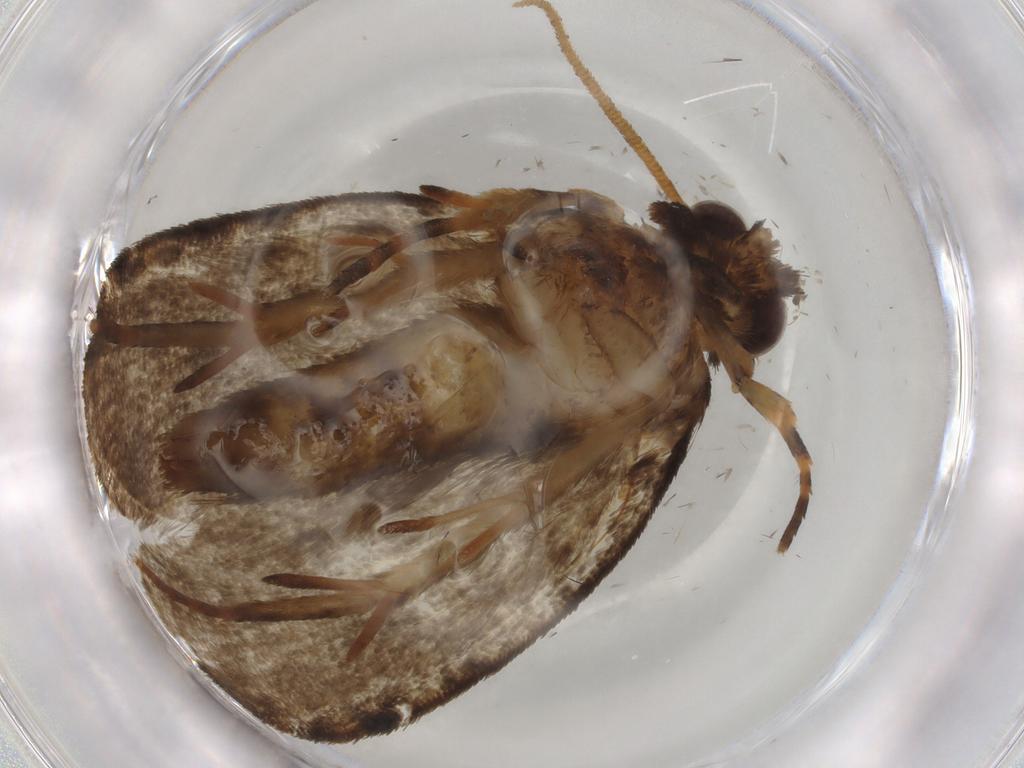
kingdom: Animalia
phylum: Arthropoda
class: Insecta
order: Lepidoptera
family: Tineidae
